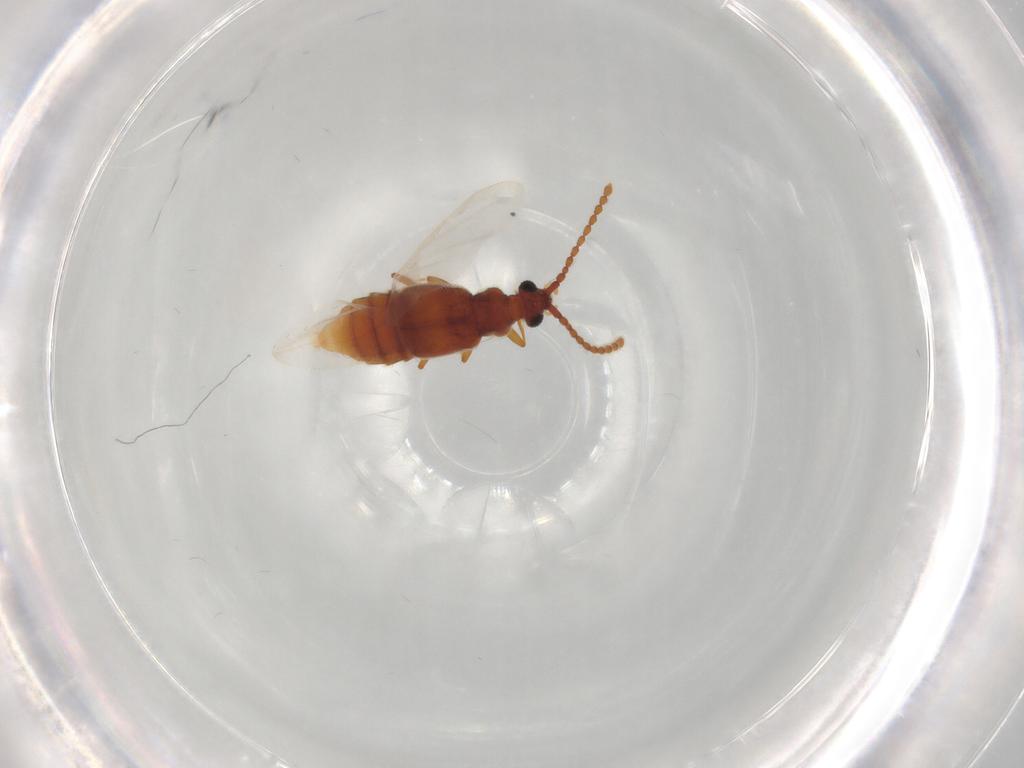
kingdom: Animalia
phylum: Arthropoda
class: Insecta
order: Coleoptera
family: Staphylinidae
